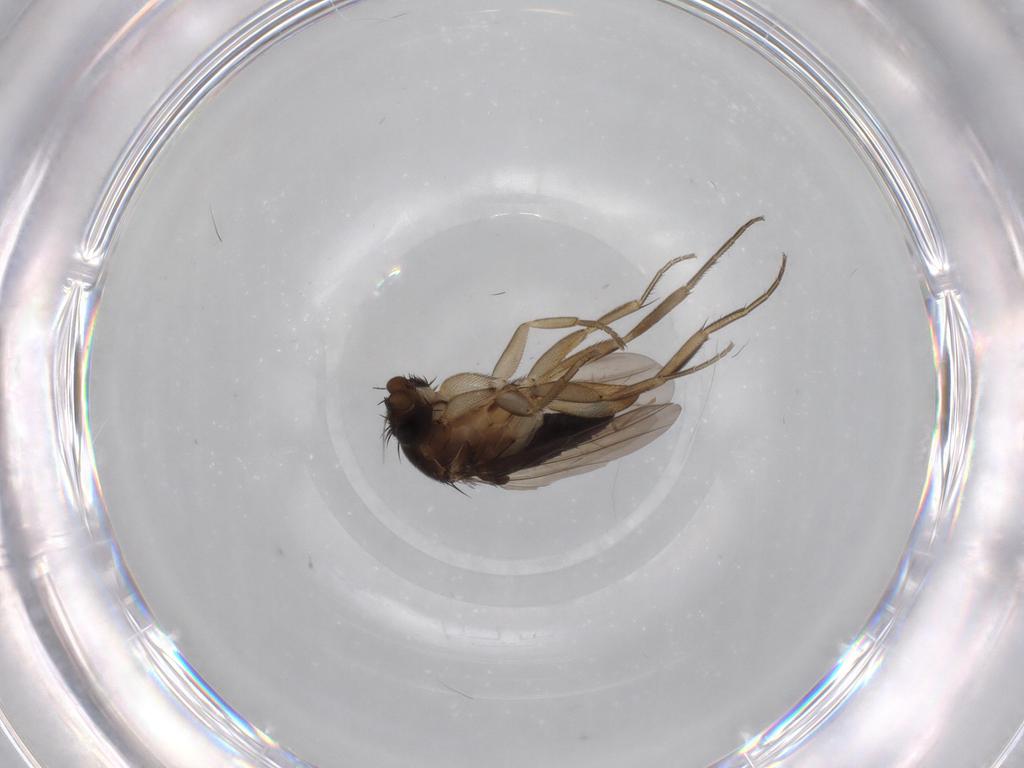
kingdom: Animalia
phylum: Arthropoda
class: Insecta
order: Diptera
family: Phoridae
